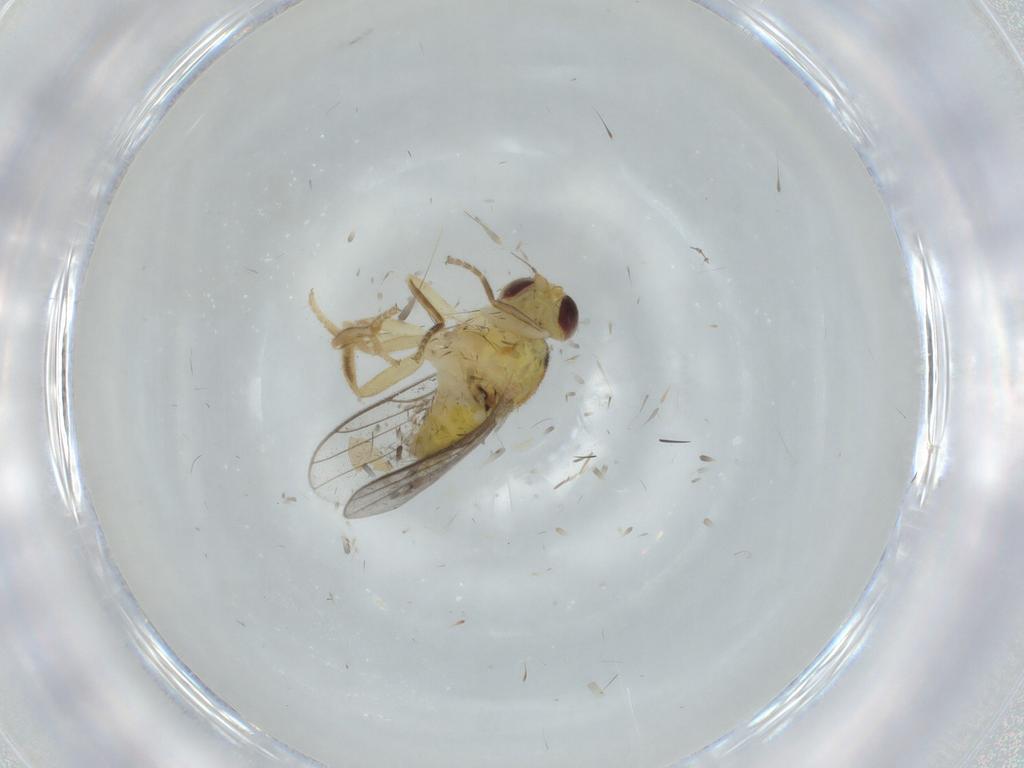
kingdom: Animalia
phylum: Arthropoda
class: Insecta
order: Diptera
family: Chloropidae
